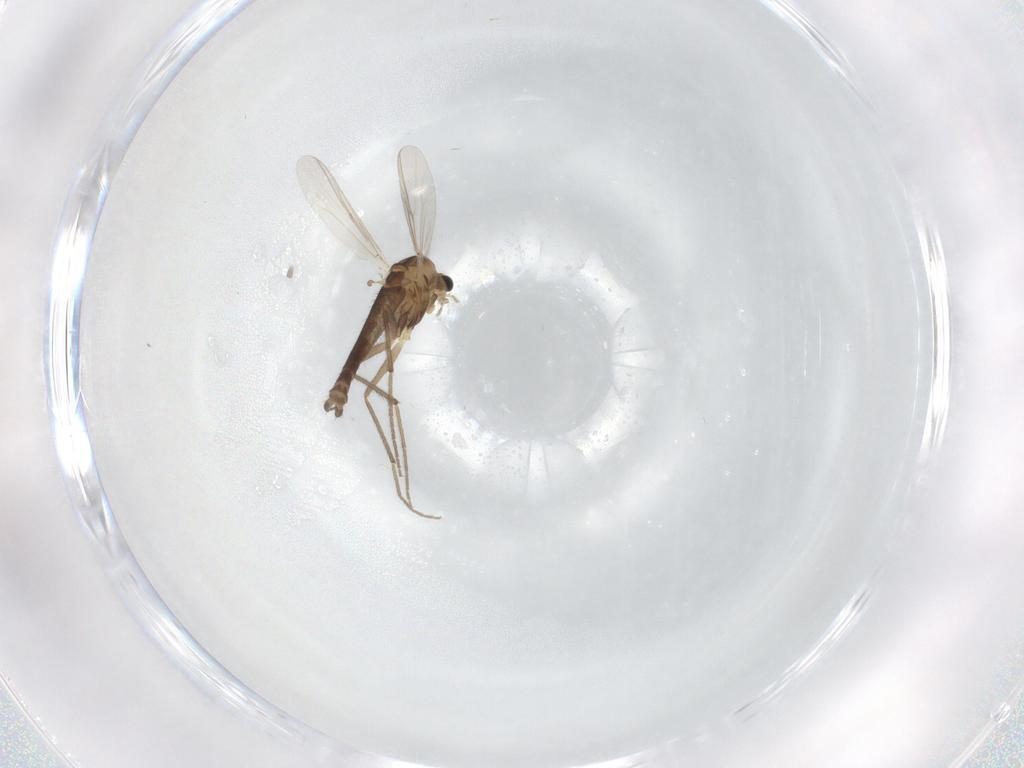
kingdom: Animalia
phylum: Arthropoda
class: Insecta
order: Diptera
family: Chironomidae
